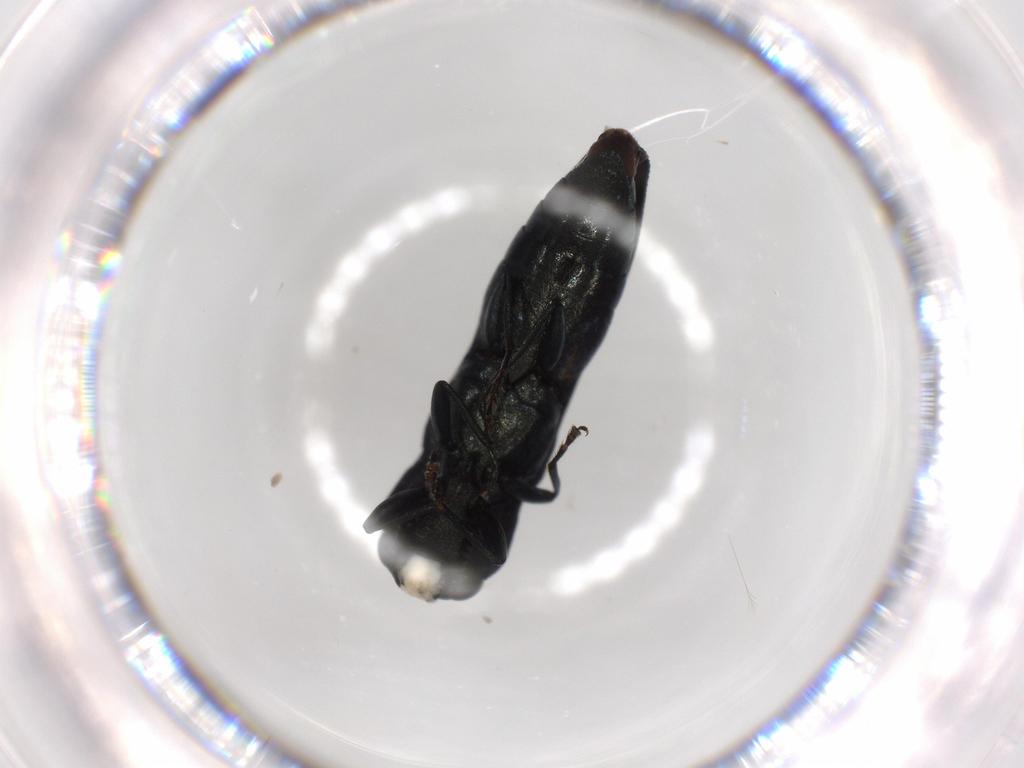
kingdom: Animalia
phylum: Arthropoda
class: Insecta
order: Coleoptera
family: Buprestidae
